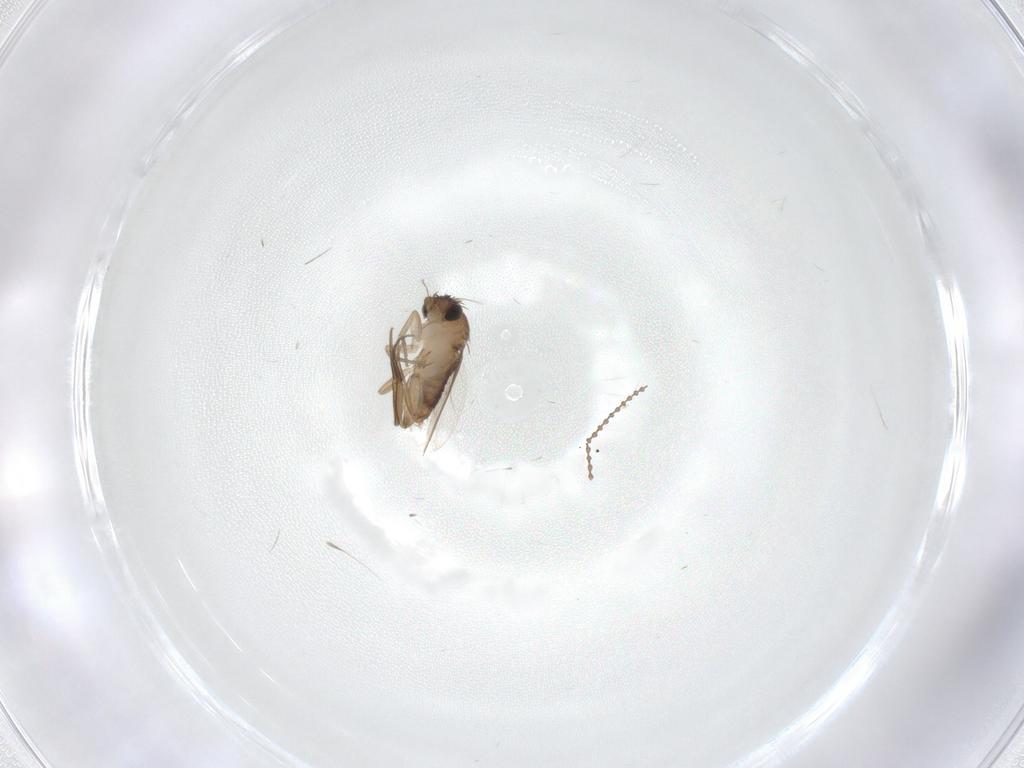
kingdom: Animalia
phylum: Arthropoda
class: Insecta
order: Diptera
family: Phoridae
